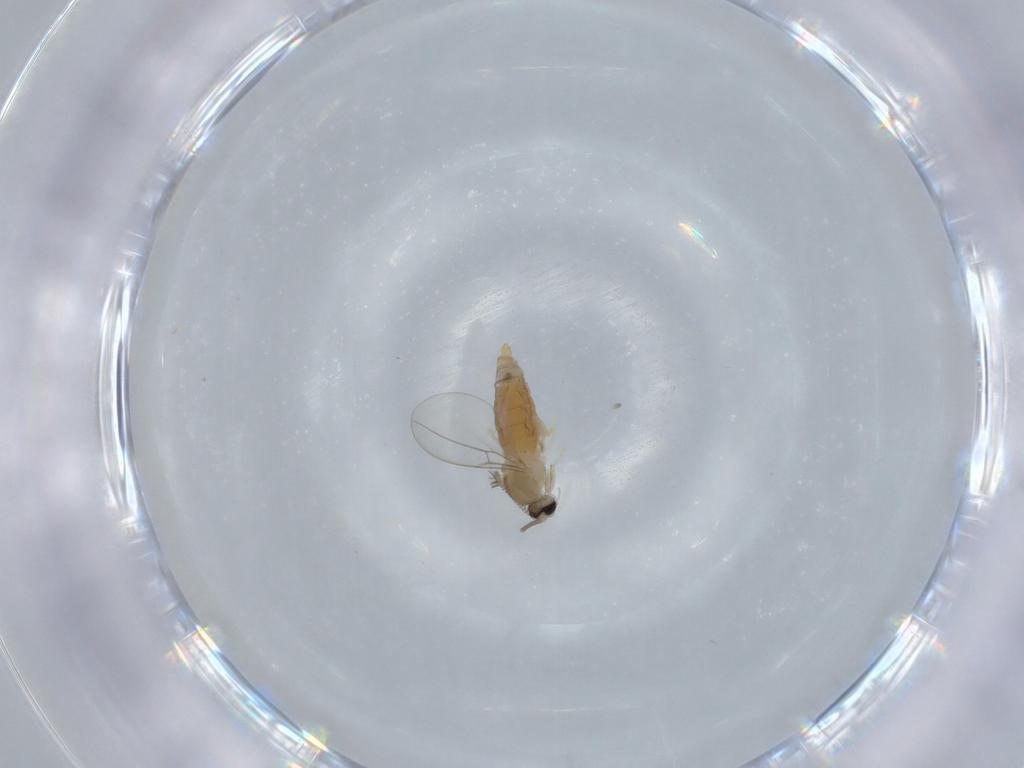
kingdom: Animalia
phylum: Arthropoda
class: Insecta
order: Diptera
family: Cecidomyiidae
